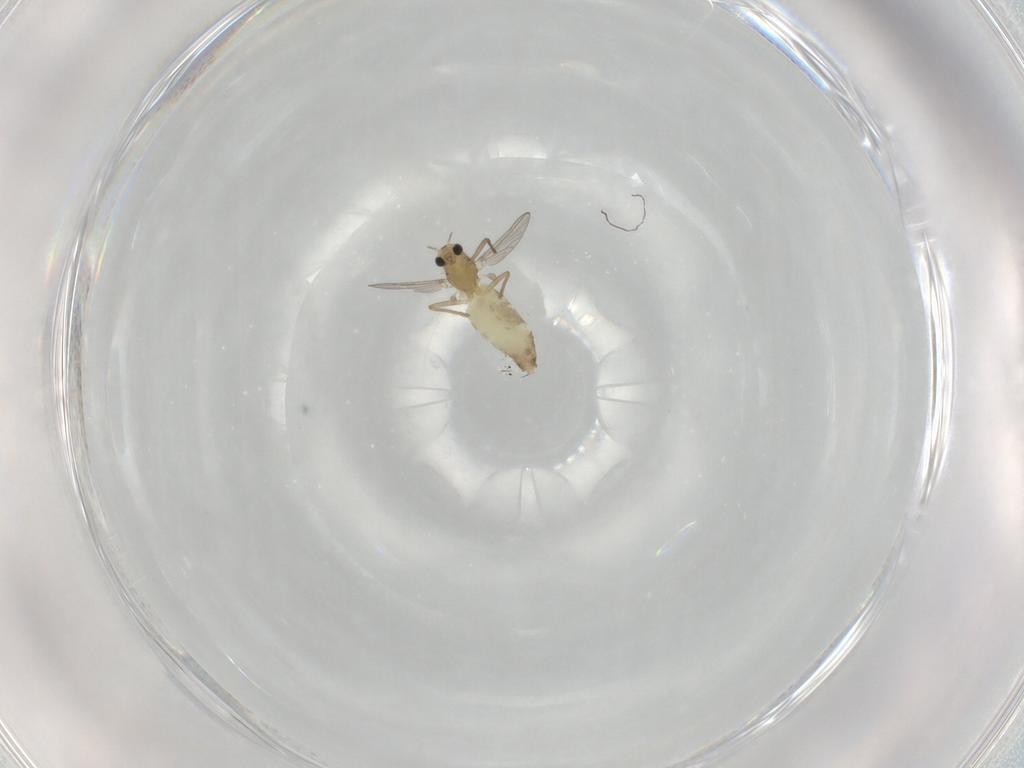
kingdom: Animalia
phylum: Arthropoda
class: Insecta
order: Diptera
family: Chironomidae
